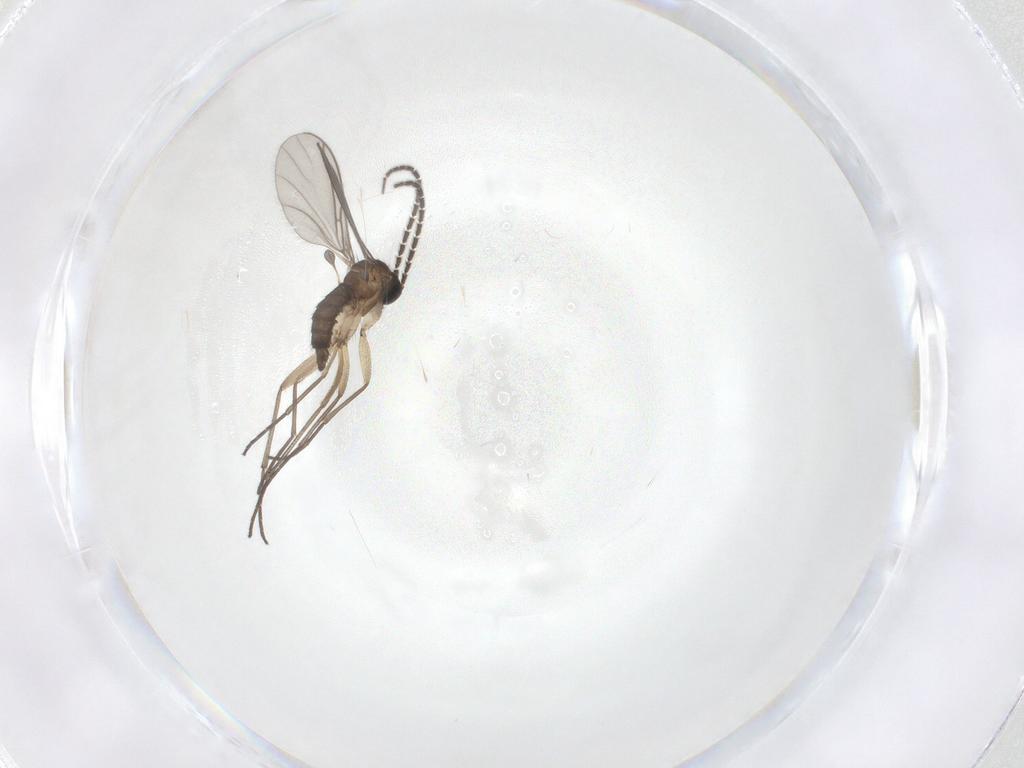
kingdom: Animalia
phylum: Arthropoda
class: Insecta
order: Diptera
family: Sciaridae
